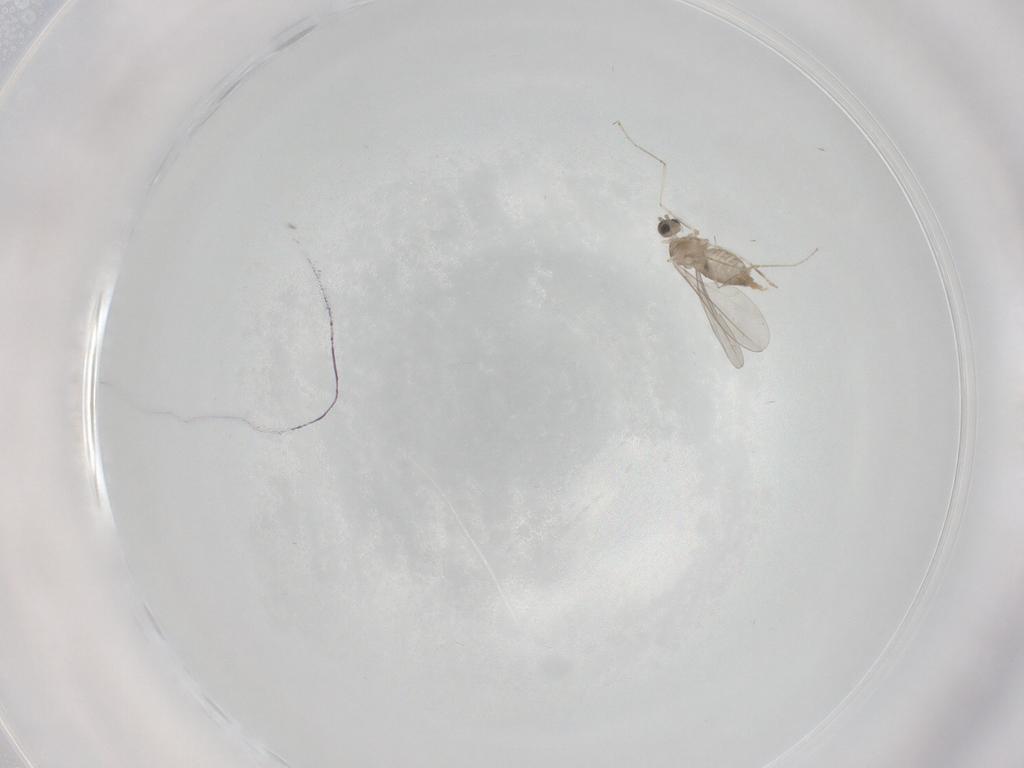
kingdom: Animalia
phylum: Arthropoda
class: Insecta
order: Diptera
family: Cecidomyiidae
